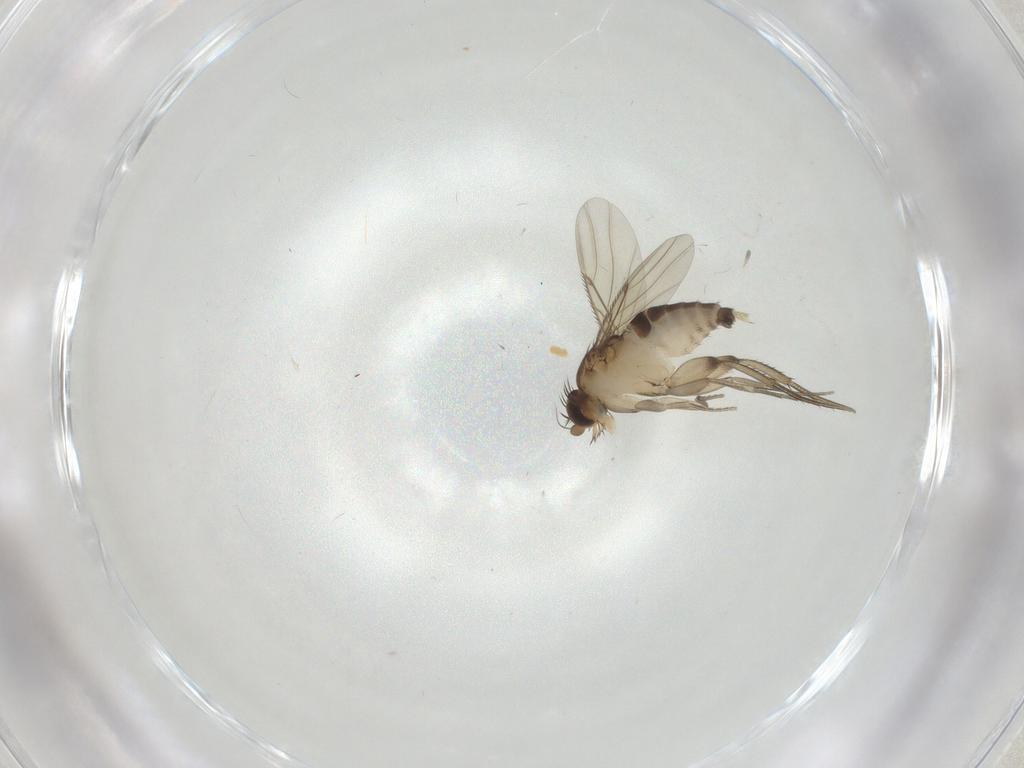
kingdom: Animalia
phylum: Arthropoda
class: Insecta
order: Diptera
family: Sciaridae
